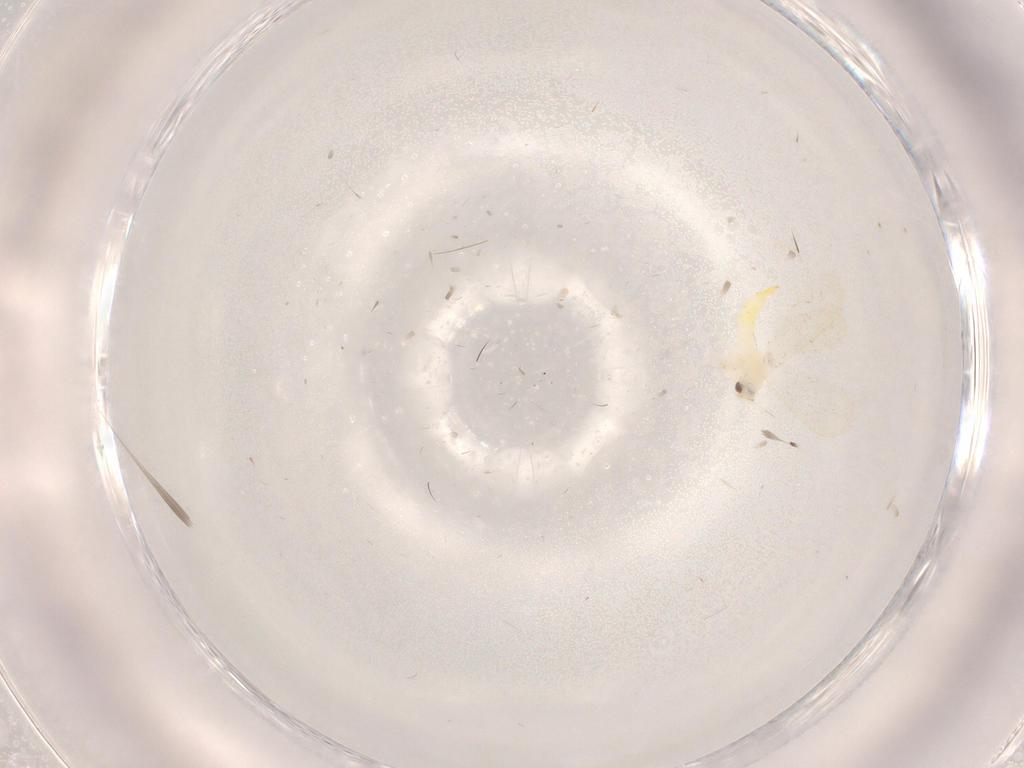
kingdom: Animalia
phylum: Arthropoda
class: Insecta
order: Hemiptera
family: Aleyrodidae
